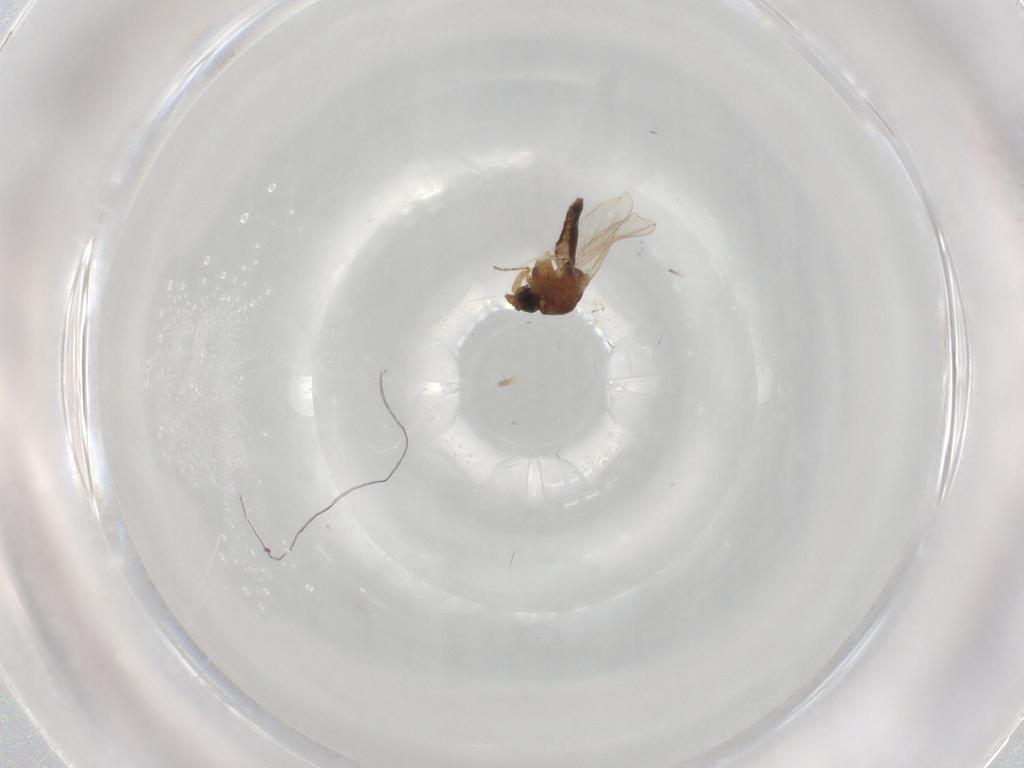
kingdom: Animalia
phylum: Arthropoda
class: Insecta
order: Diptera
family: Ceratopogonidae
